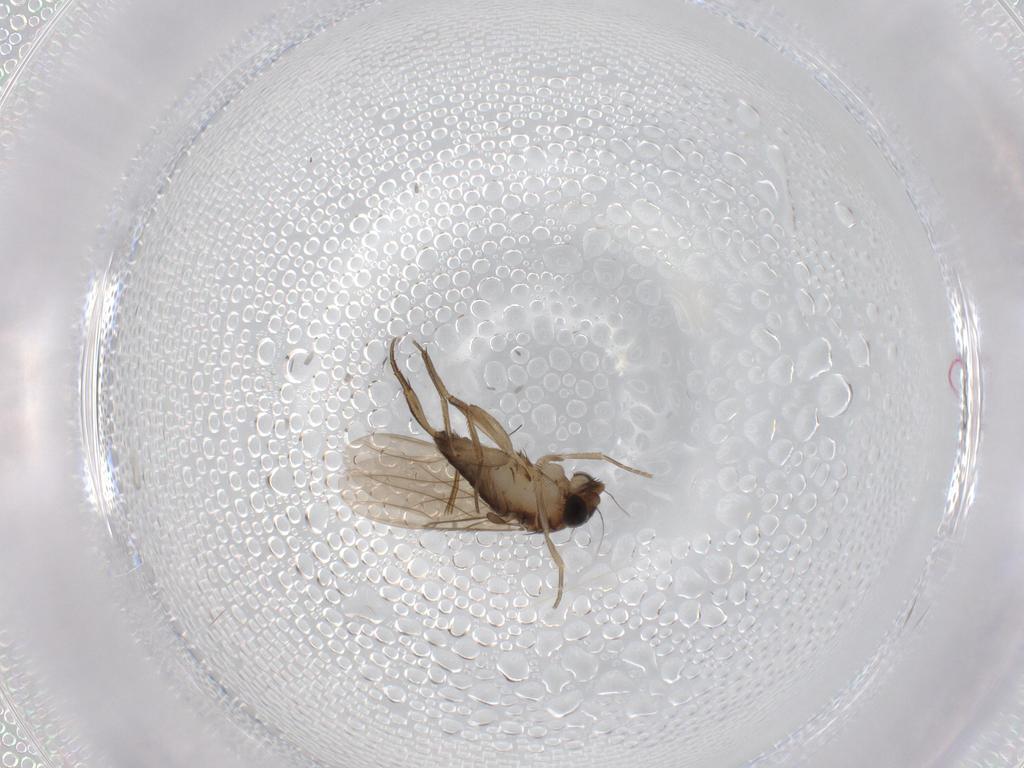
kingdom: Animalia
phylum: Arthropoda
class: Insecta
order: Diptera
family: Phoridae
